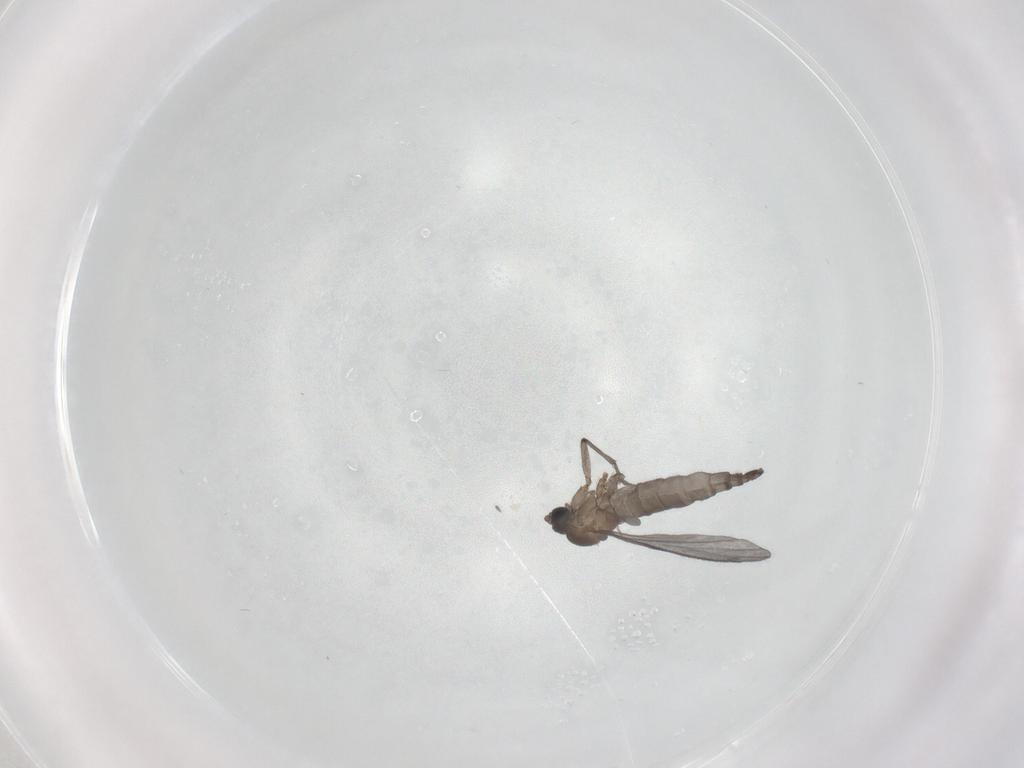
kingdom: Animalia
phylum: Arthropoda
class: Insecta
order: Diptera
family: Sciaridae
